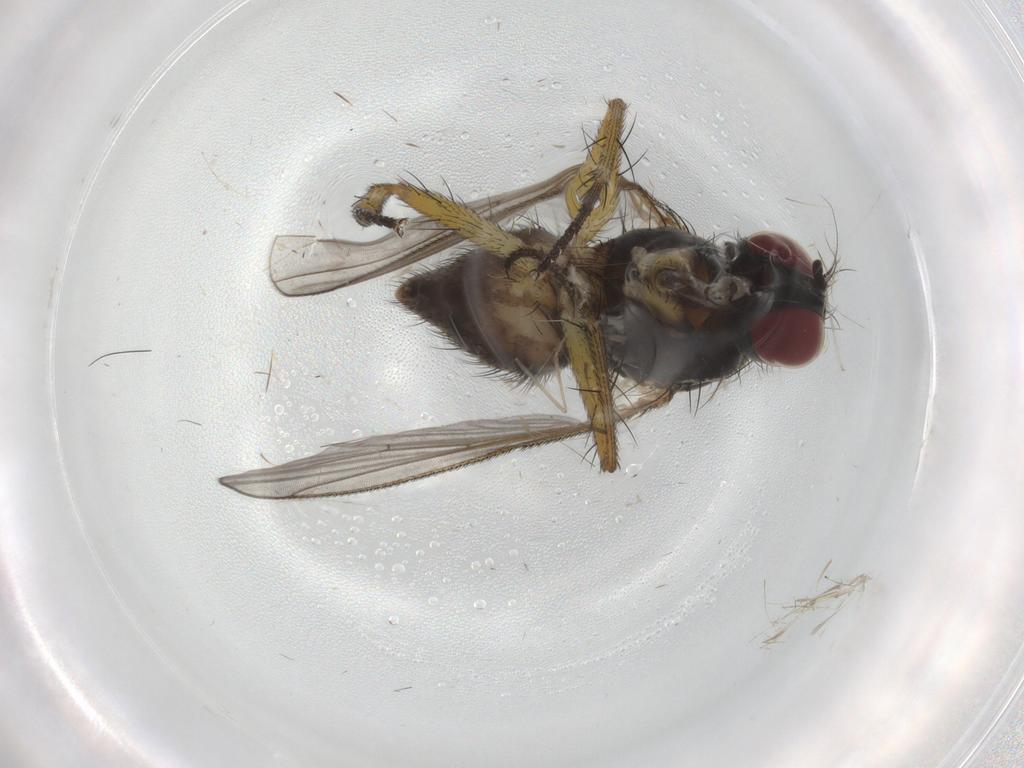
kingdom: Animalia
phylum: Arthropoda
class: Insecta
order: Diptera
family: Chironomidae
